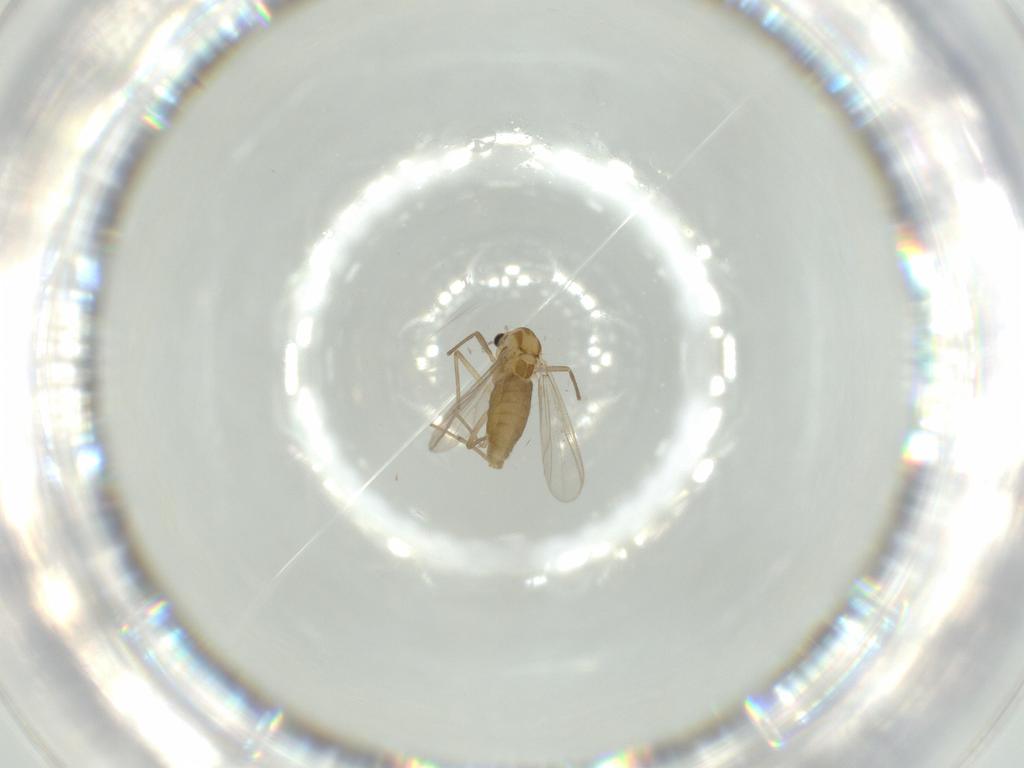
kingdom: Animalia
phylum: Arthropoda
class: Insecta
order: Diptera
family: Chironomidae
